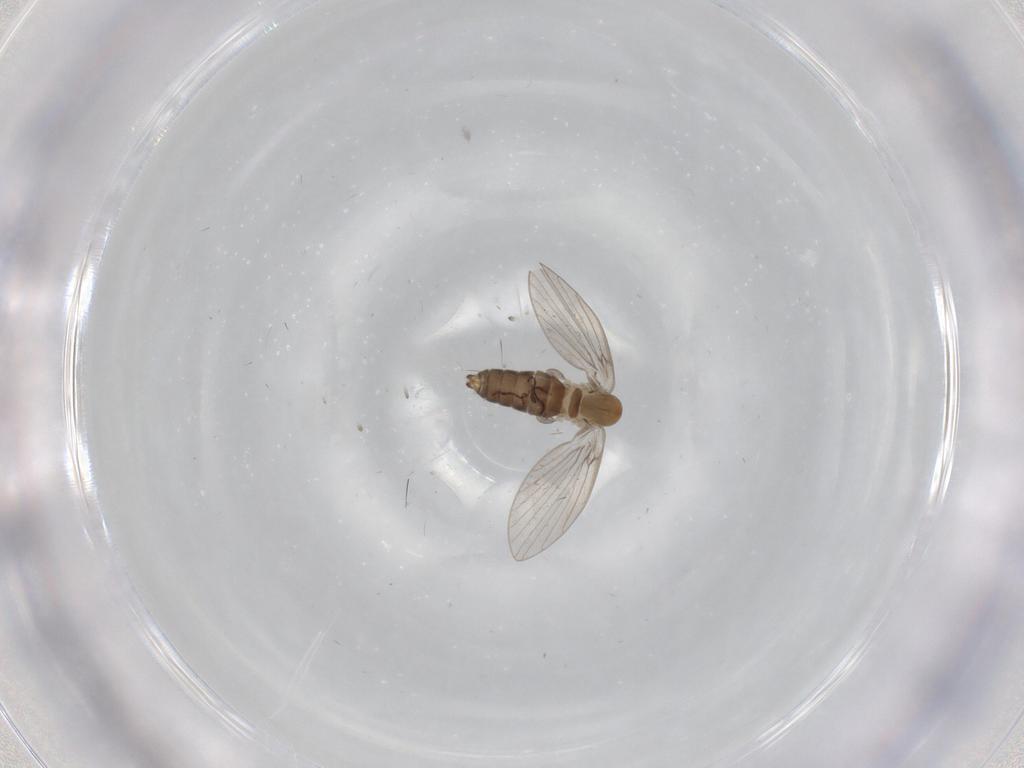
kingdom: Animalia
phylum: Arthropoda
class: Insecta
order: Diptera
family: Psychodidae
